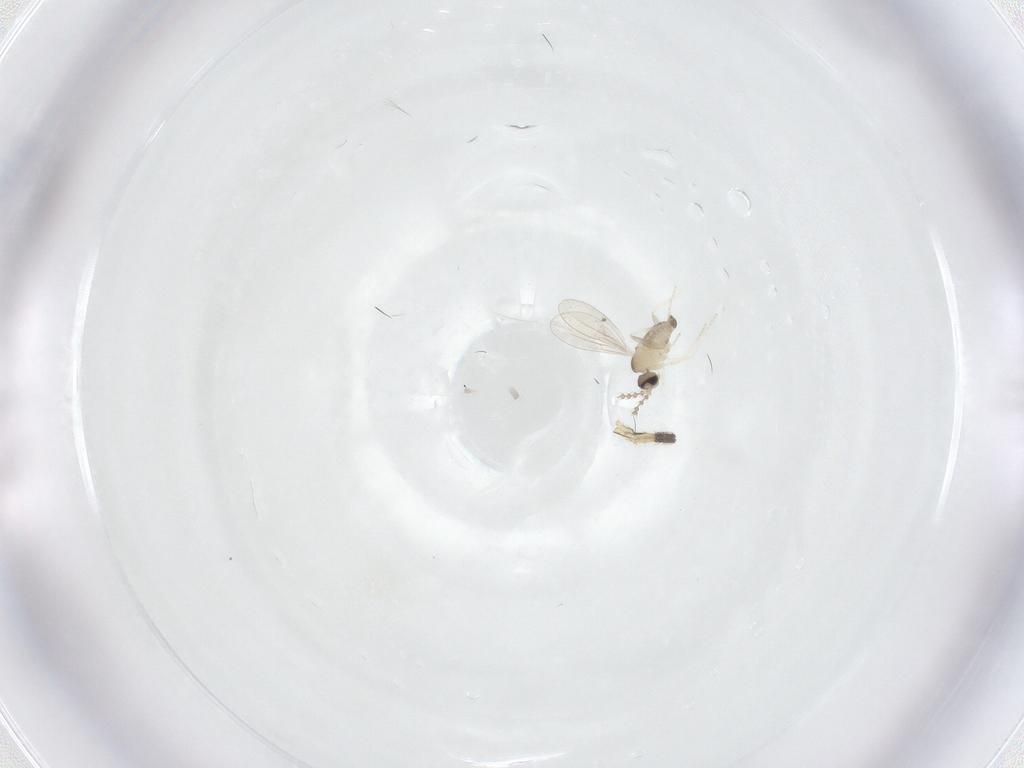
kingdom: Animalia
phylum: Arthropoda
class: Insecta
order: Diptera
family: Cecidomyiidae
